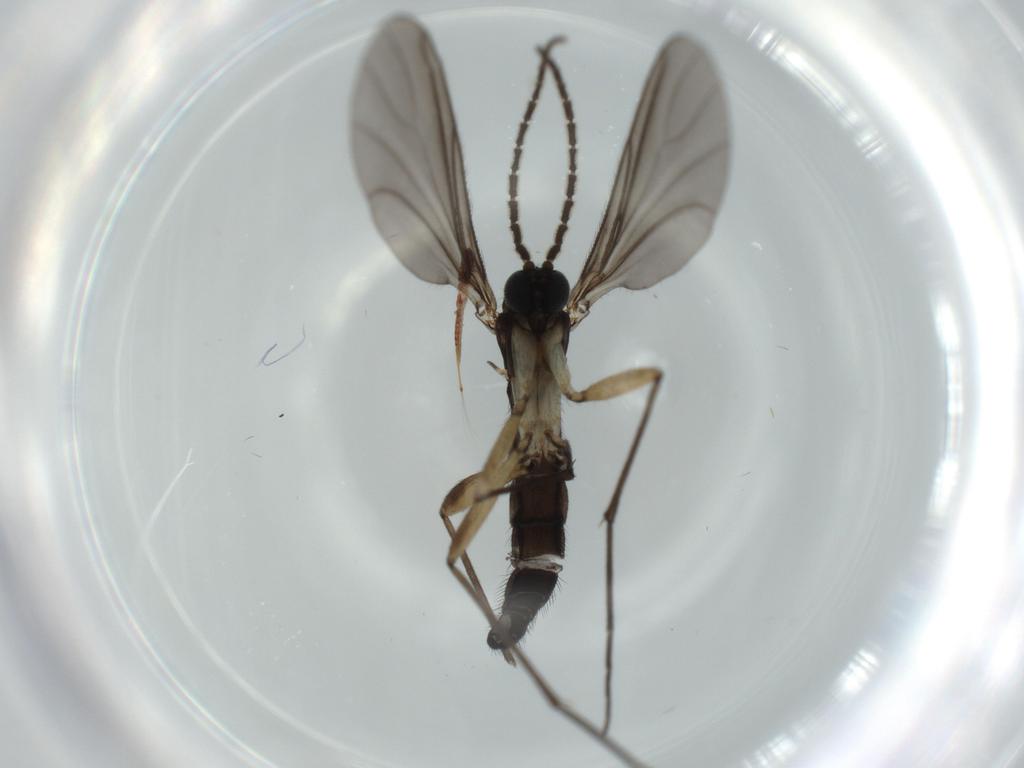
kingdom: Animalia
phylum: Arthropoda
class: Insecta
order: Diptera
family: Sciaridae
